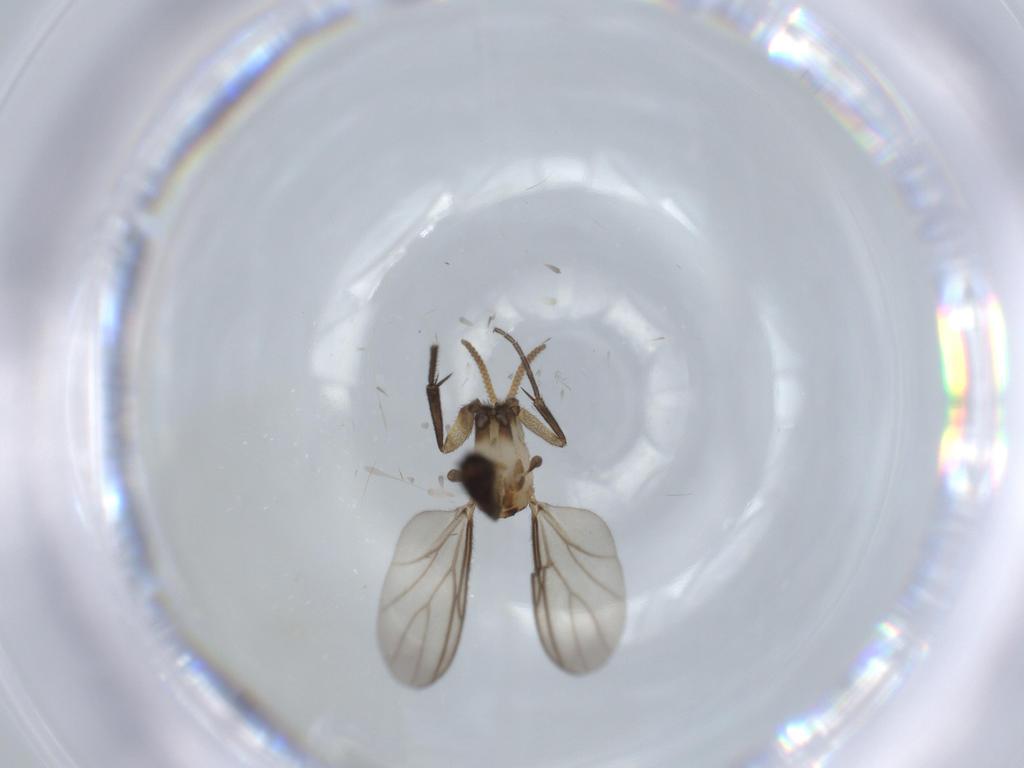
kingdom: Animalia
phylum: Arthropoda
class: Insecta
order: Diptera
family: Mycetophilidae
